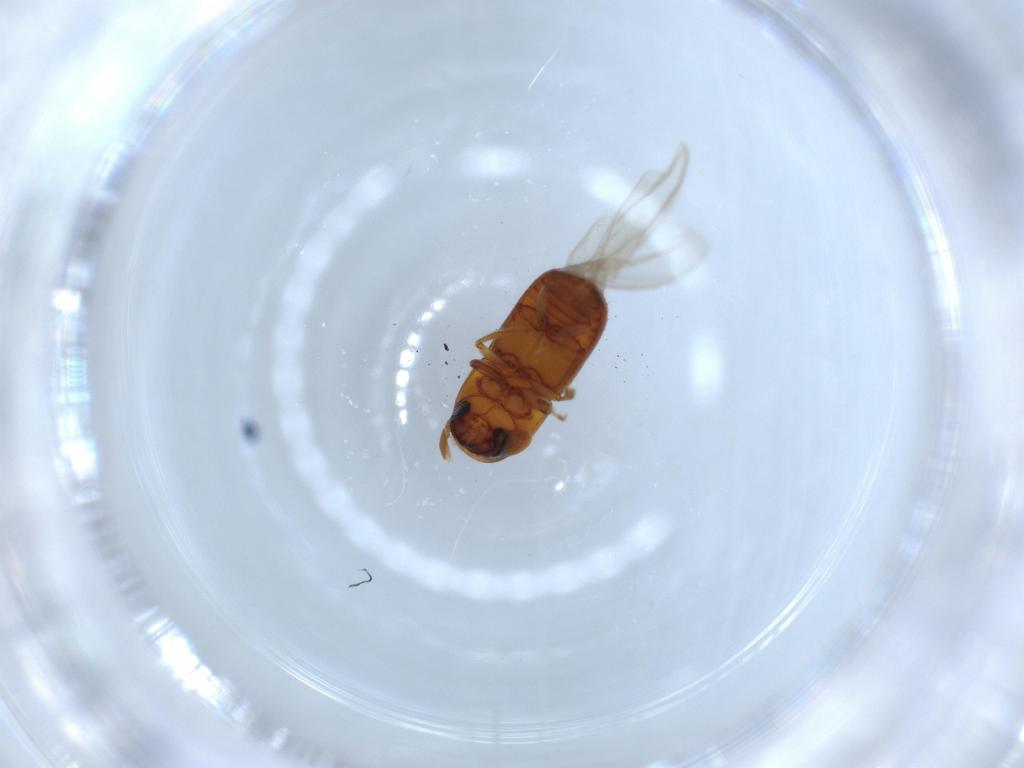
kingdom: Animalia
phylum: Arthropoda
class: Insecta
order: Coleoptera
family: Curculionidae
